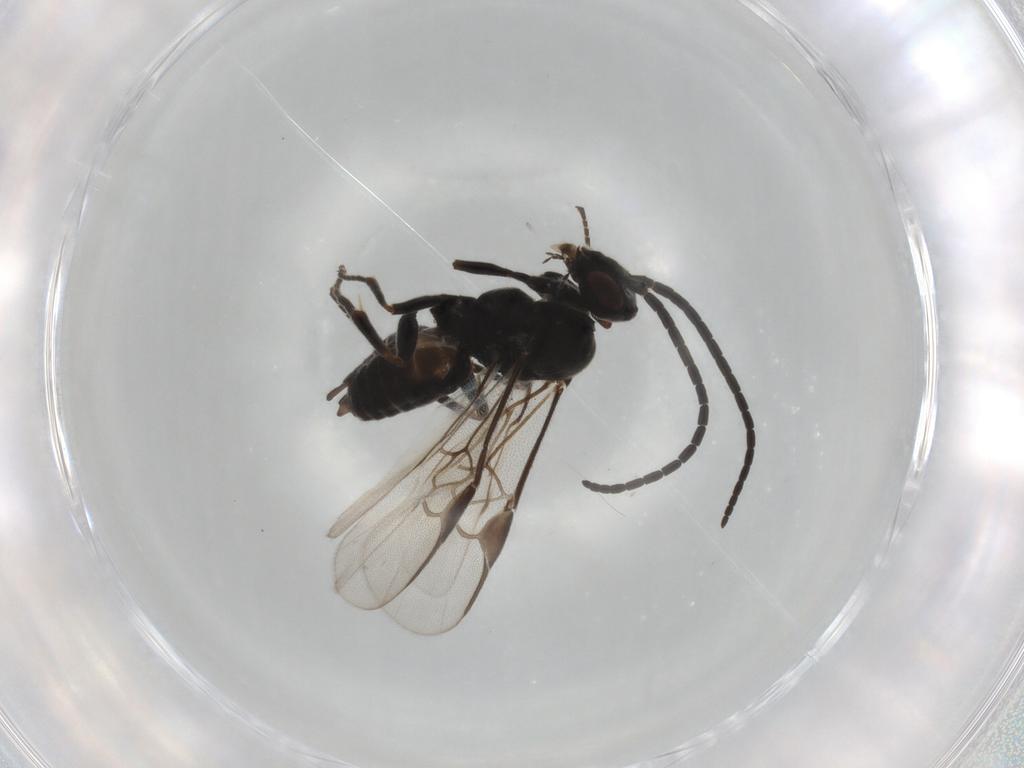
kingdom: Animalia
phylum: Arthropoda
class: Insecta
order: Hymenoptera
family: Braconidae
